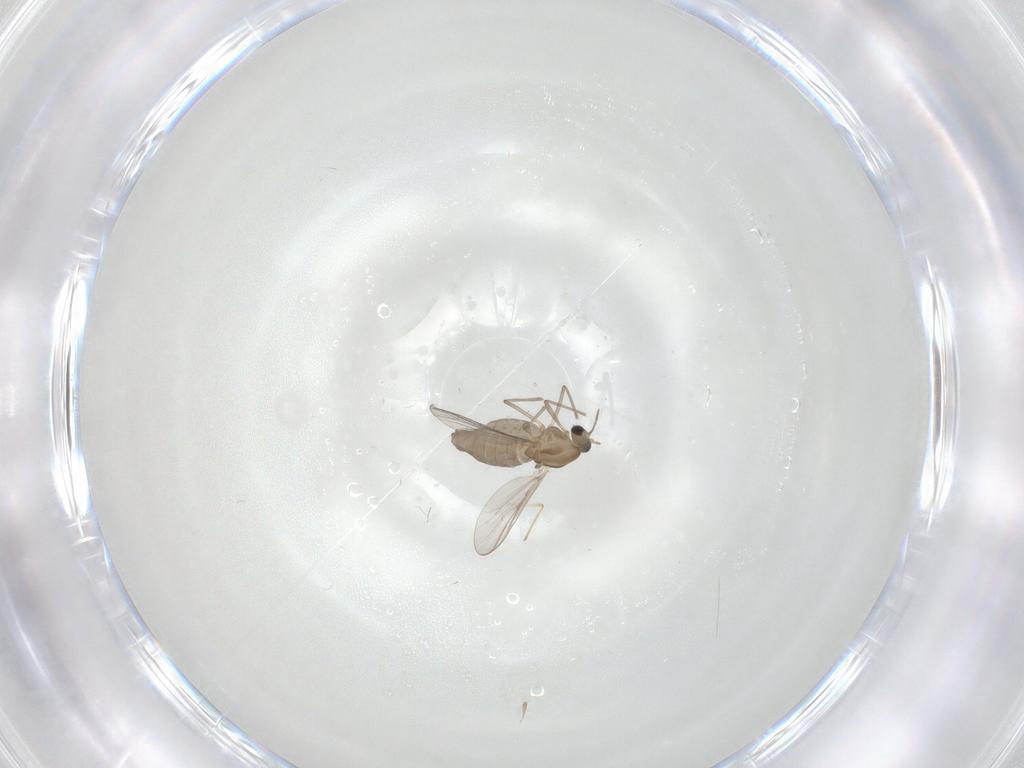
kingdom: Animalia
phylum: Arthropoda
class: Insecta
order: Diptera
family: Chironomidae
